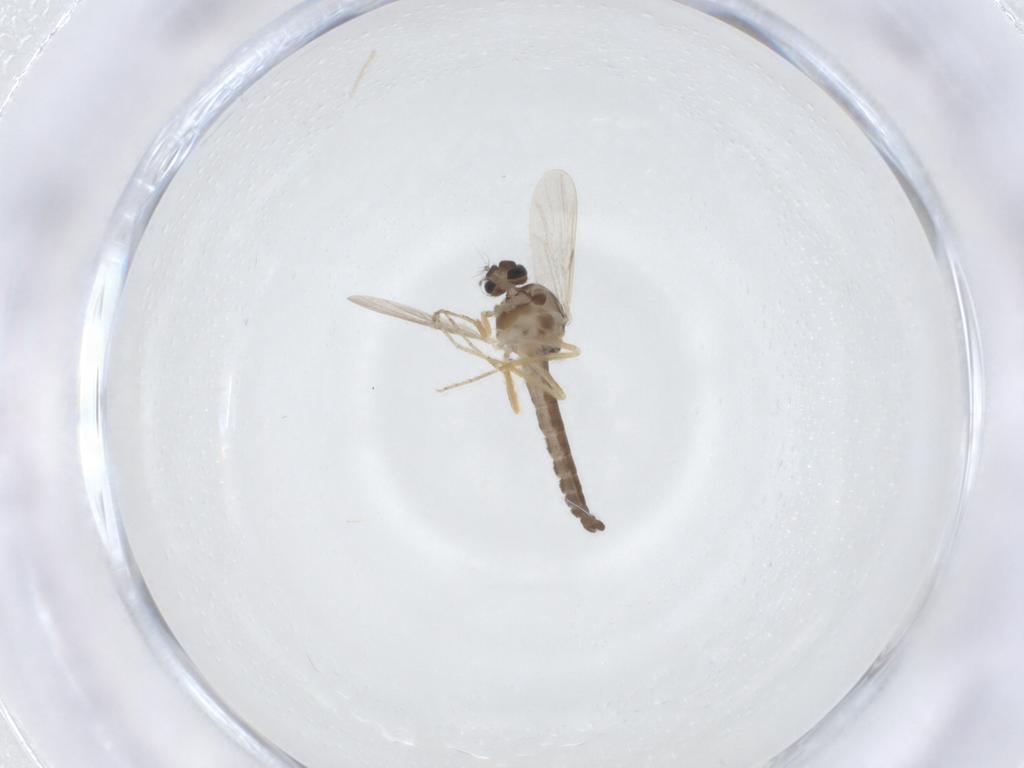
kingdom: Animalia
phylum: Arthropoda
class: Insecta
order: Diptera
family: Ceratopogonidae
